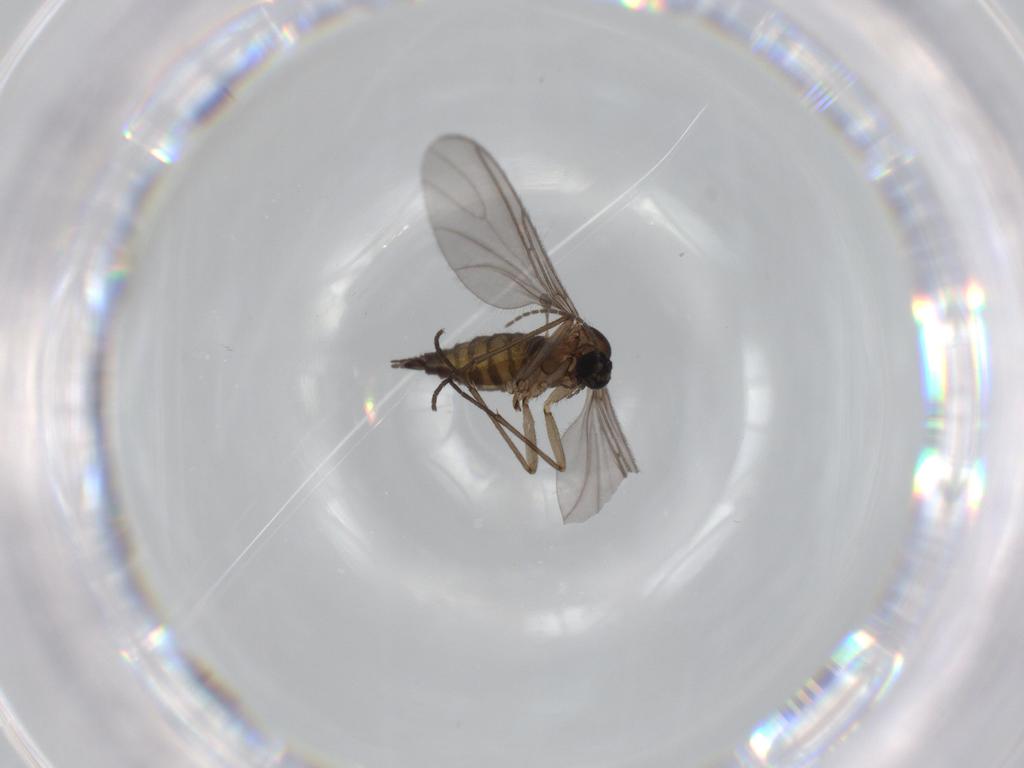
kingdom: Animalia
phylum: Arthropoda
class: Insecta
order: Diptera
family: Sciaridae
